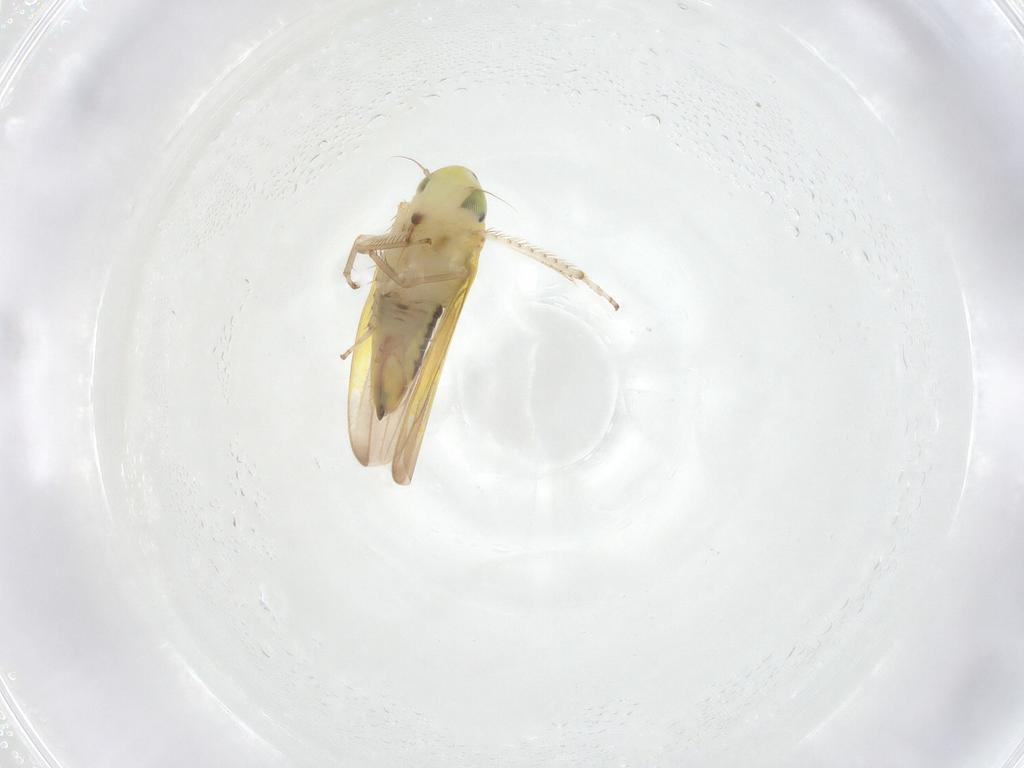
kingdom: Animalia
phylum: Arthropoda
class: Insecta
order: Hemiptera
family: Cicadellidae
